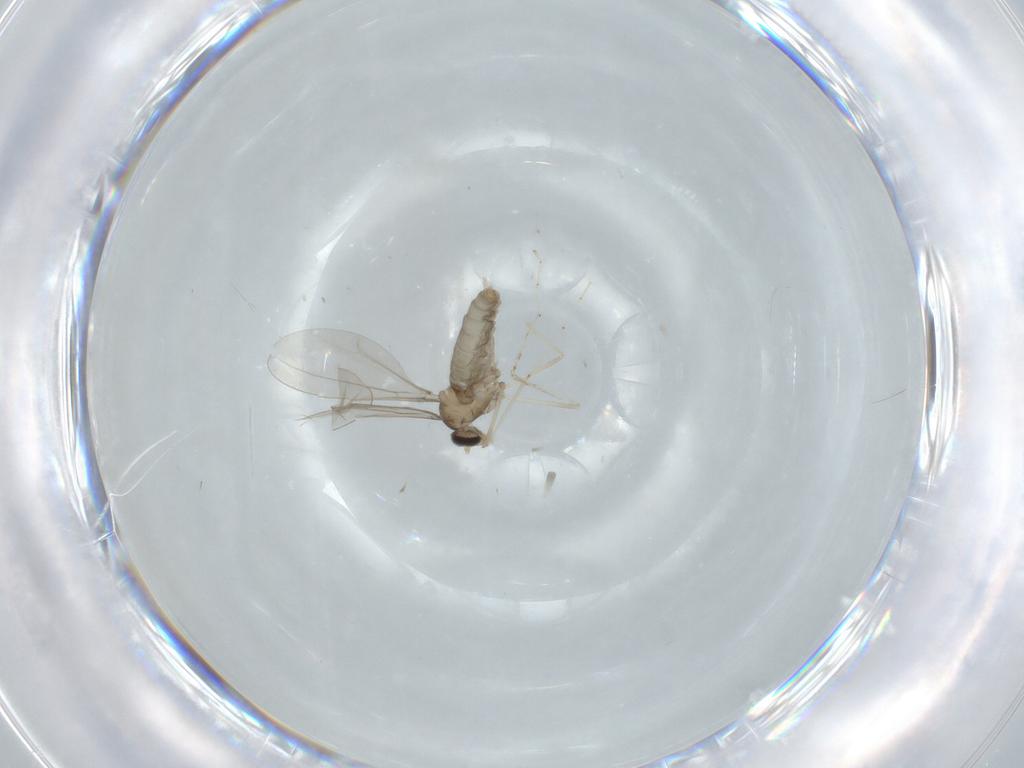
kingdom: Animalia
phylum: Arthropoda
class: Insecta
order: Diptera
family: Cecidomyiidae
